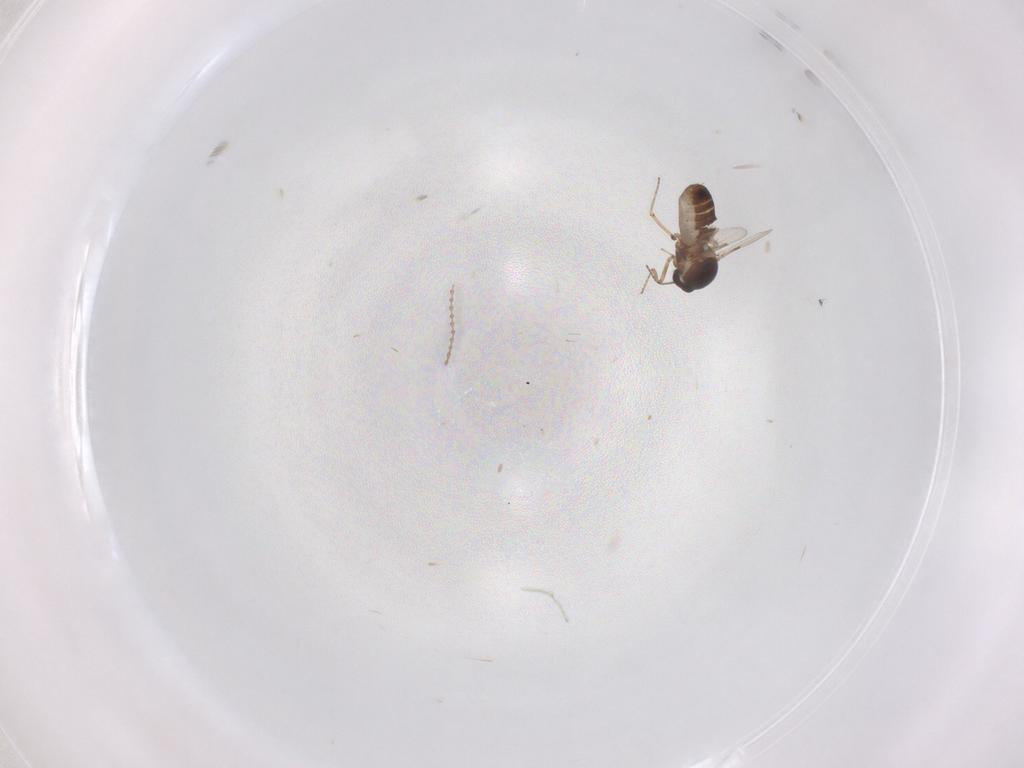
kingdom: Animalia
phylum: Arthropoda
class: Insecta
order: Diptera
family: Ceratopogonidae
